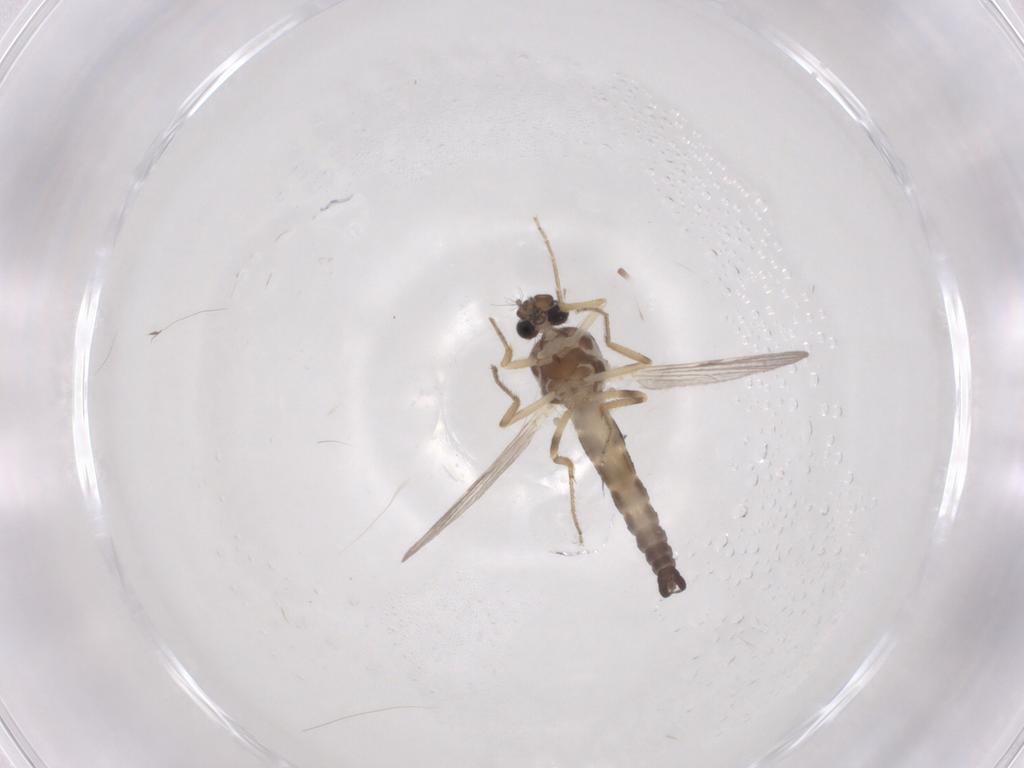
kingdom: Animalia
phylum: Arthropoda
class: Insecta
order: Diptera
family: Ceratopogonidae
